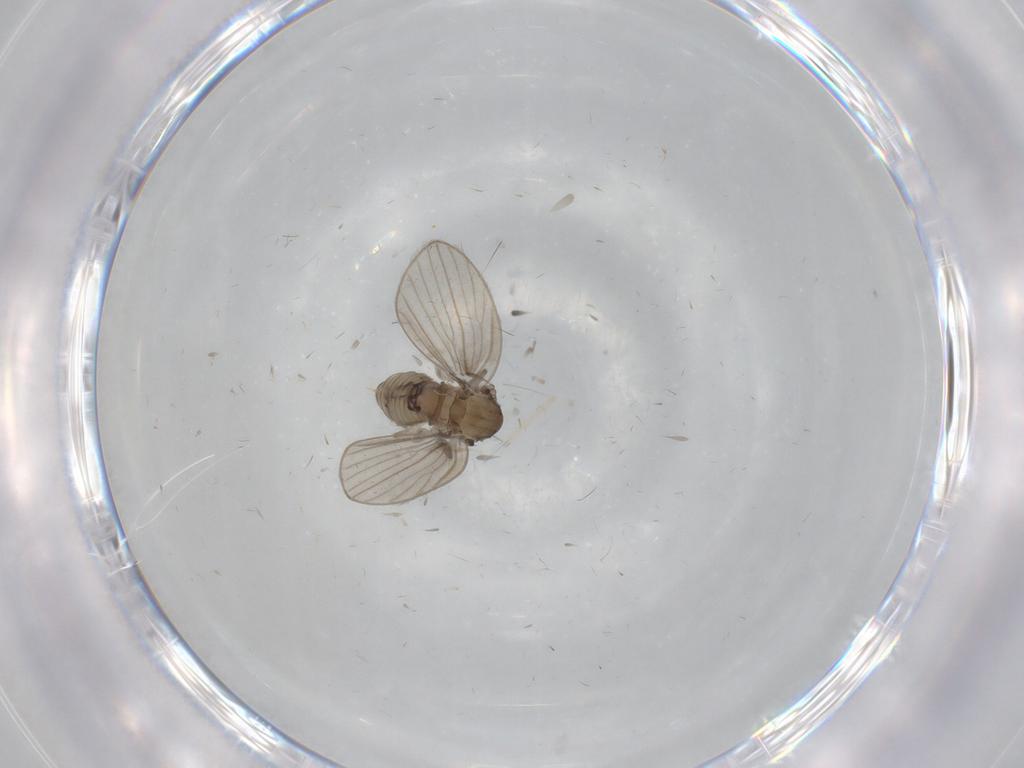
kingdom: Animalia
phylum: Arthropoda
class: Insecta
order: Diptera
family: Psychodidae
